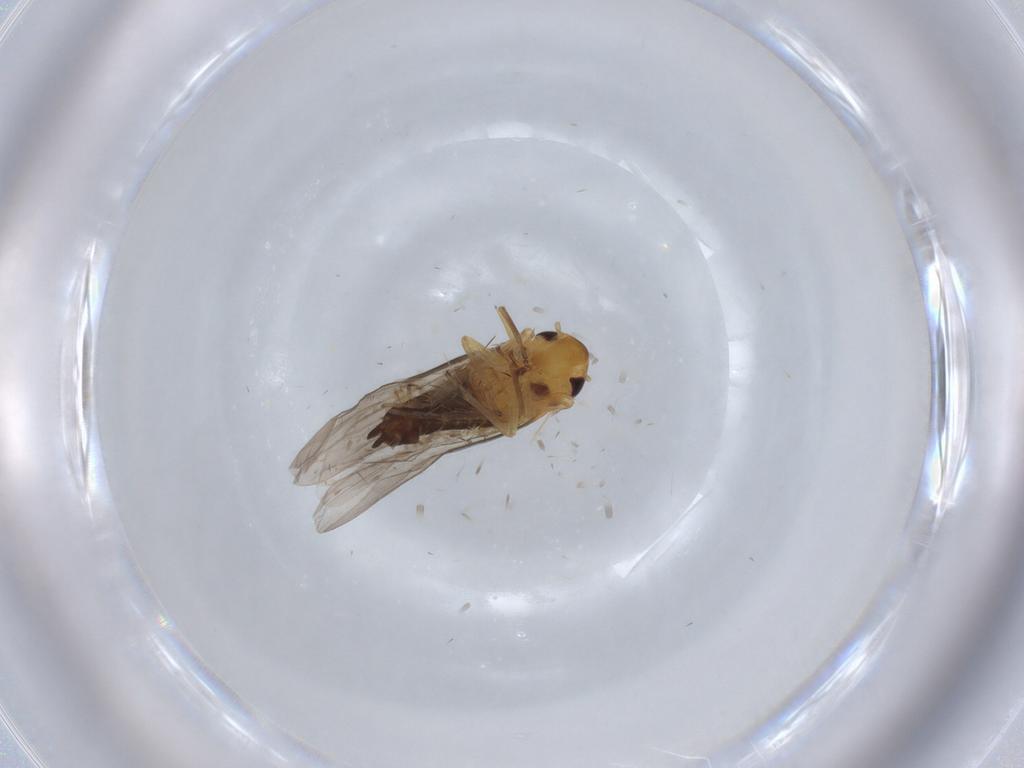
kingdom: Animalia
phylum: Arthropoda
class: Insecta
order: Hemiptera
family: Cicadellidae
